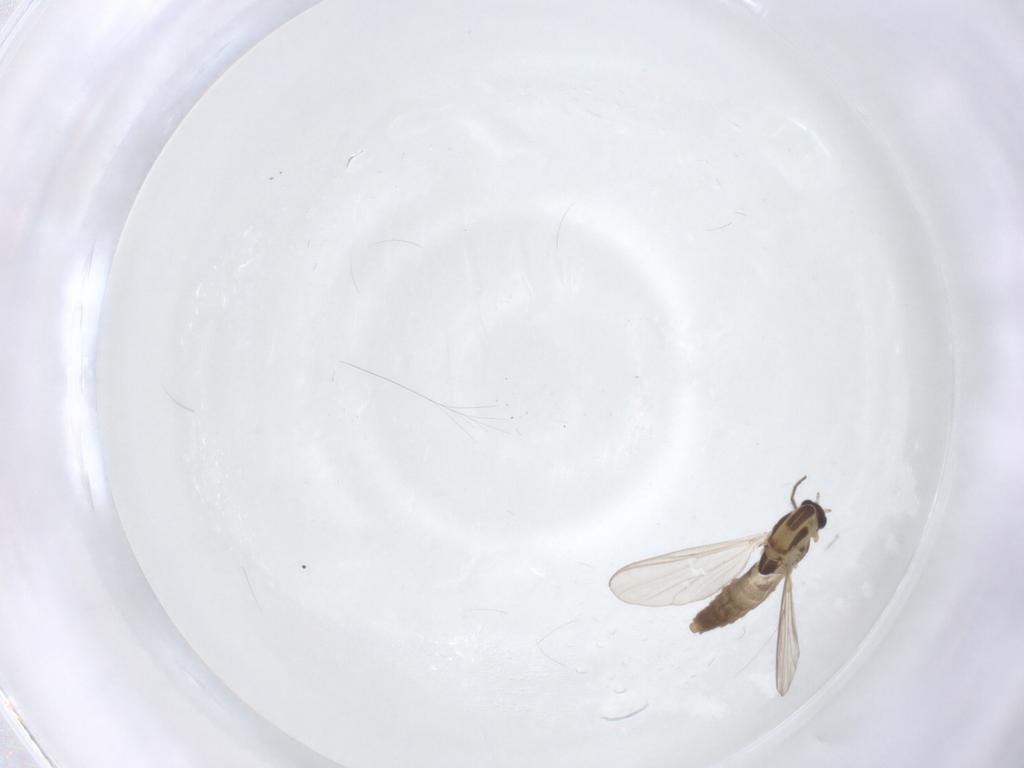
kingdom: Animalia
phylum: Arthropoda
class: Insecta
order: Diptera
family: Chironomidae
